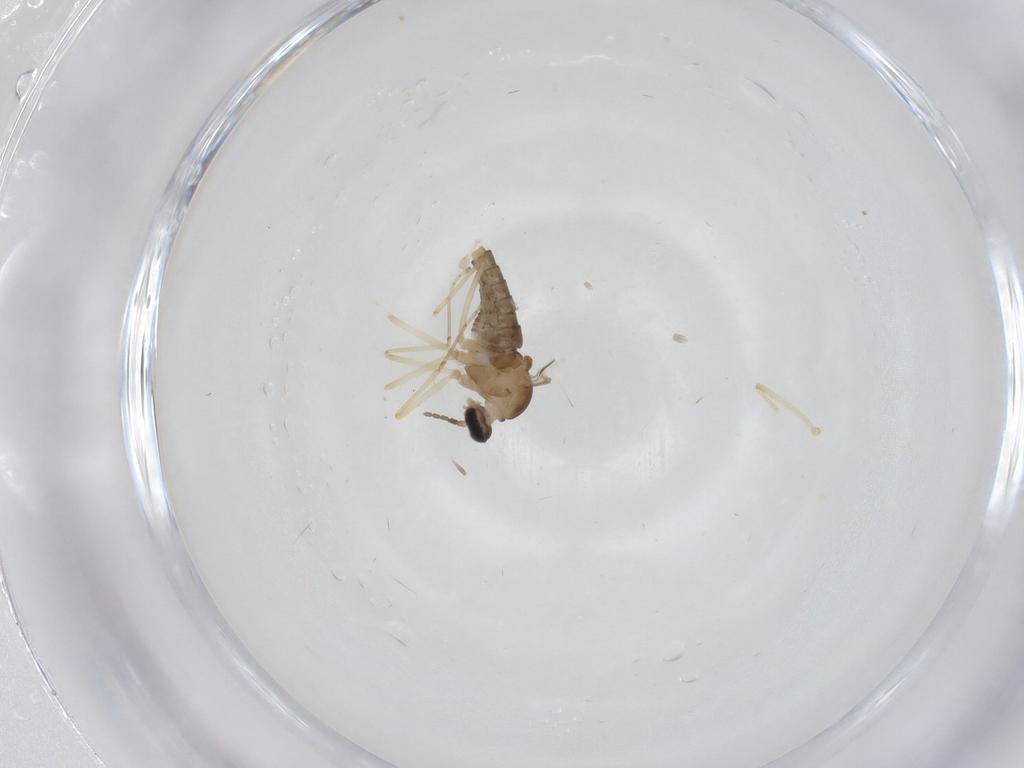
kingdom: Animalia
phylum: Arthropoda
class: Insecta
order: Diptera
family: Cecidomyiidae
